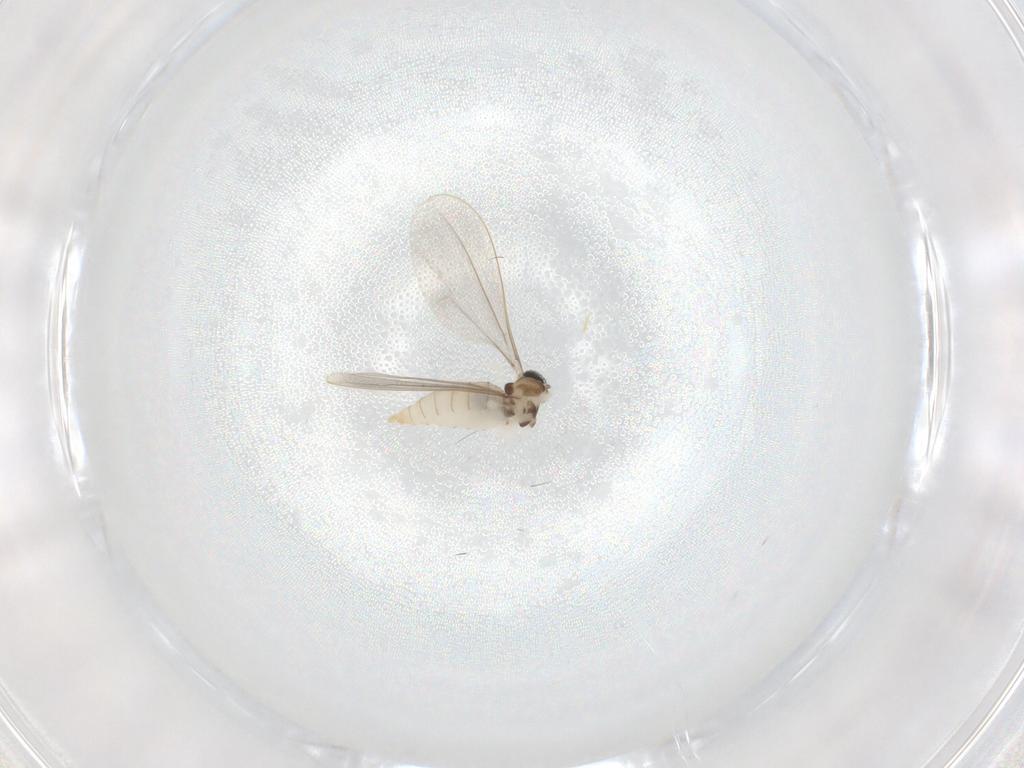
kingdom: Animalia
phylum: Arthropoda
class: Insecta
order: Diptera
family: Cecidomyiidae
